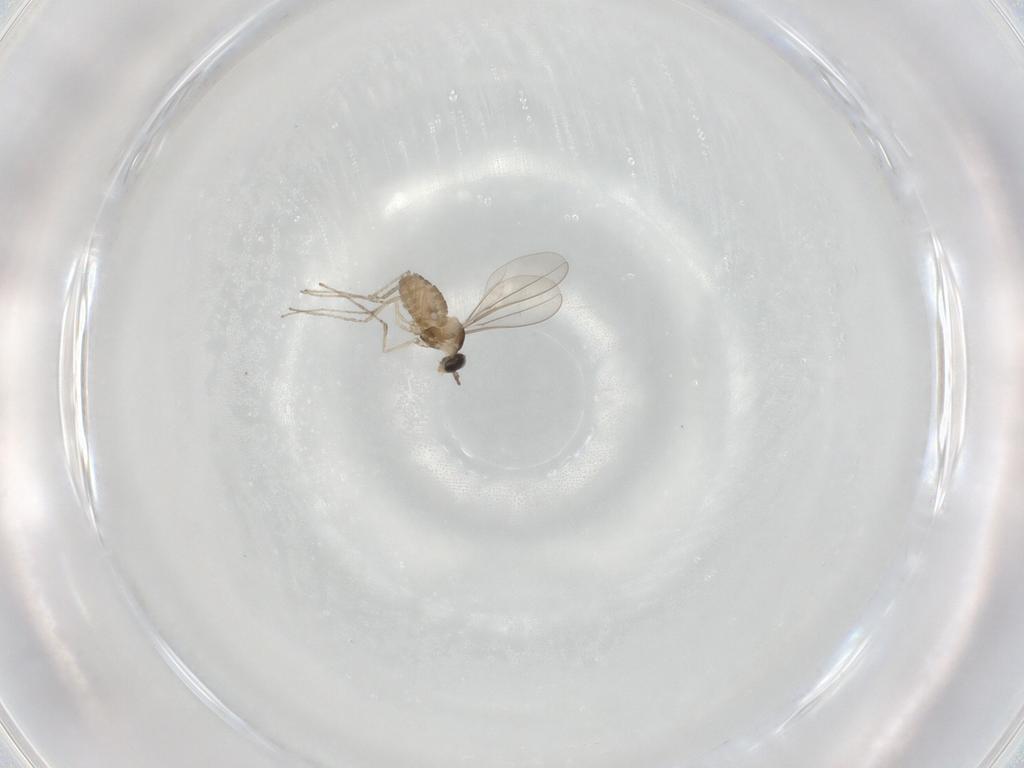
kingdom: Animalia
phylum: Arthropoda
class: Insecta
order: Diptera
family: Cecidomyiidae
